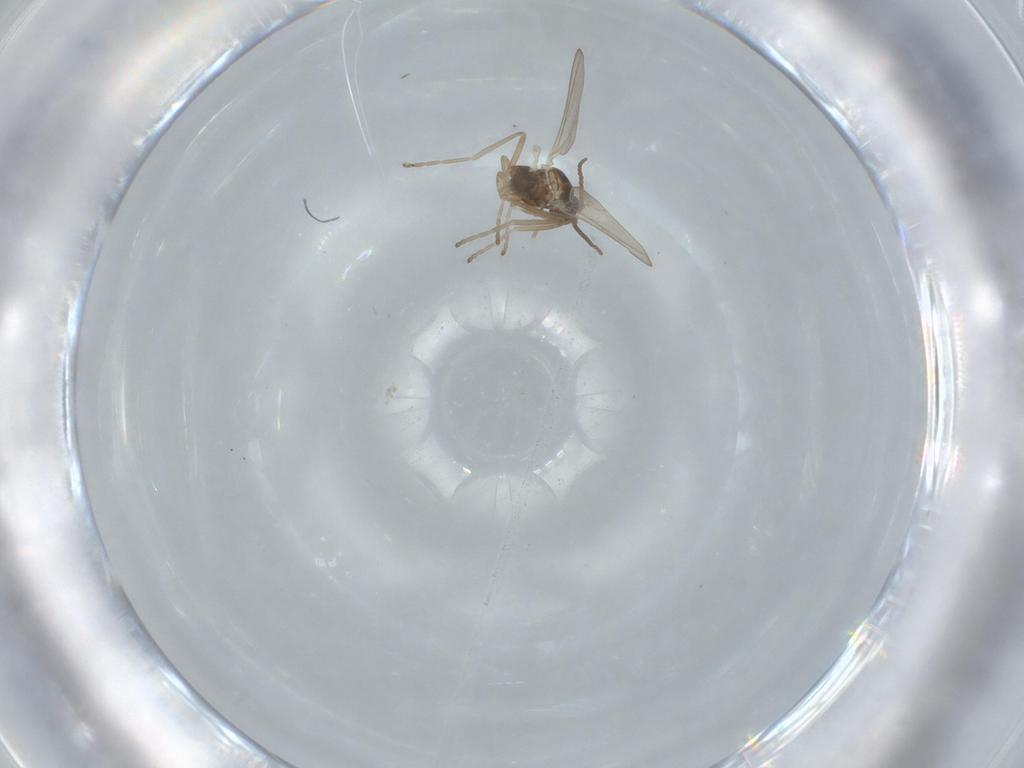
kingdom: Animalia
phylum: Arthropoda
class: Insecta
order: Diptera
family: Cecidomyiidae
